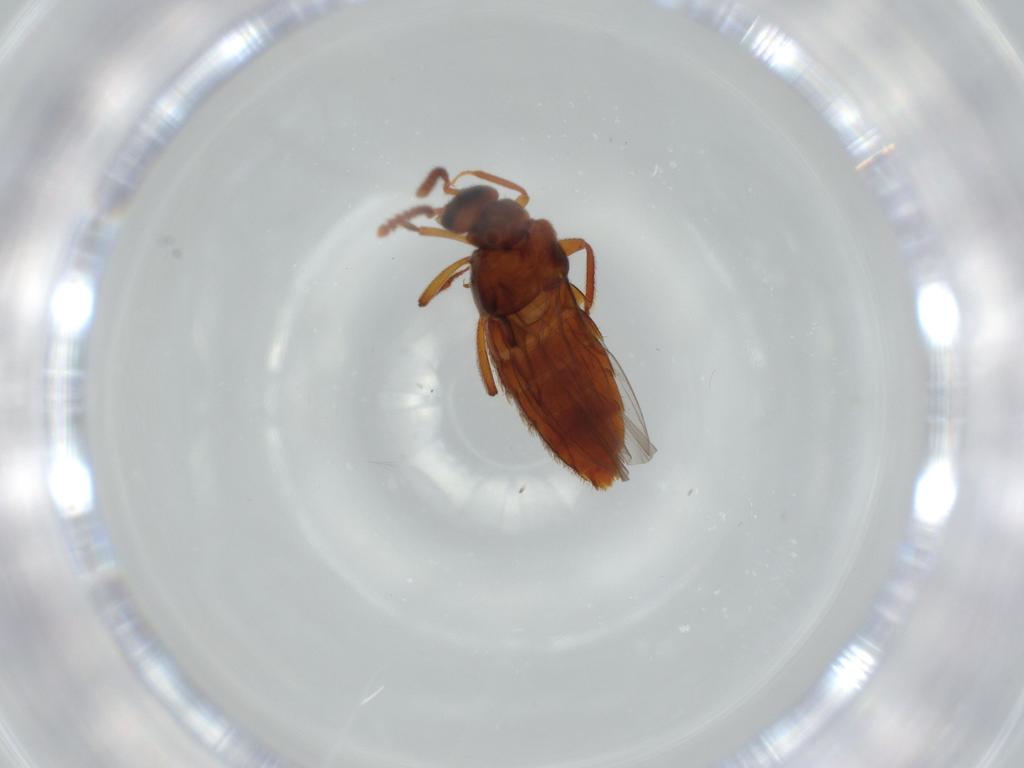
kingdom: Animalia
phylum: Arthropoda
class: Insecta
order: Coleoptera
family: Staphylinidae
